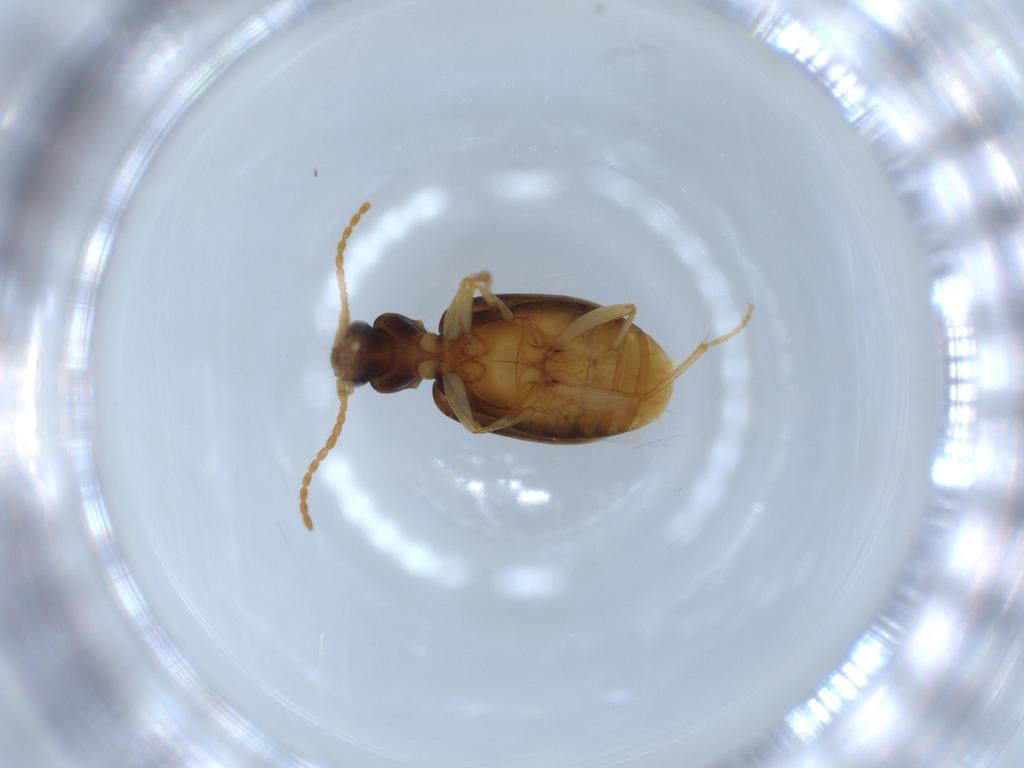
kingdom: Animalia
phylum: Arthropoda
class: Insecta
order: Coleoptera
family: Carabidae
